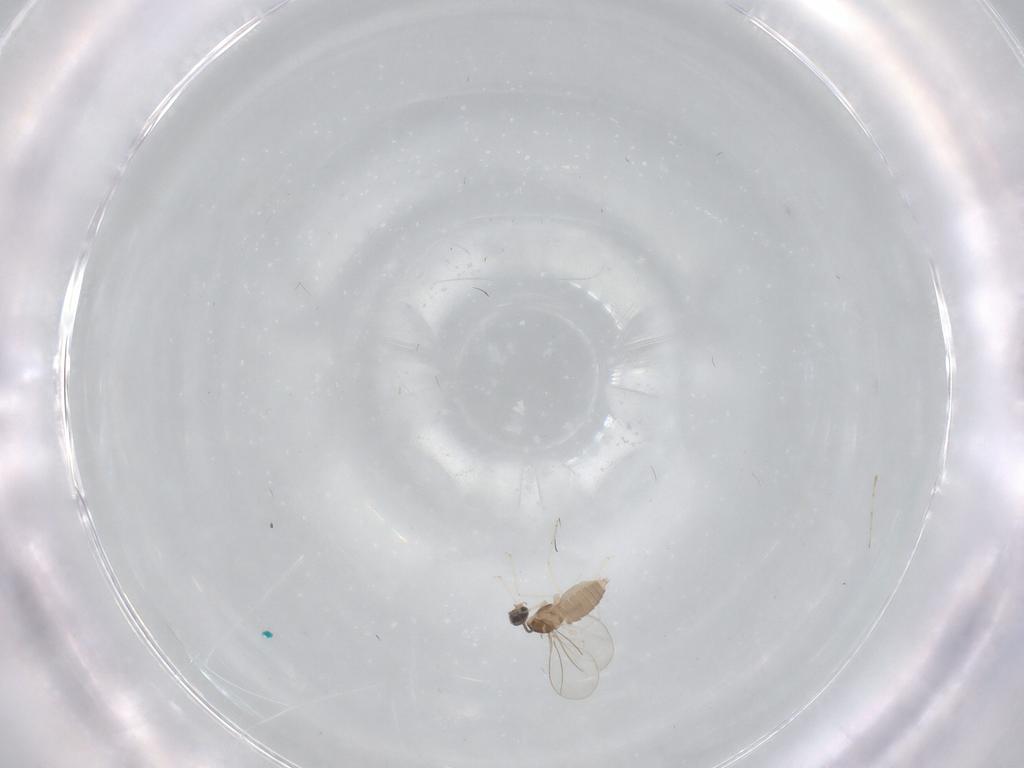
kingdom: Animalia
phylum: Arthropoda
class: Insecta
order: Diptera
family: Cecidomyiidae
